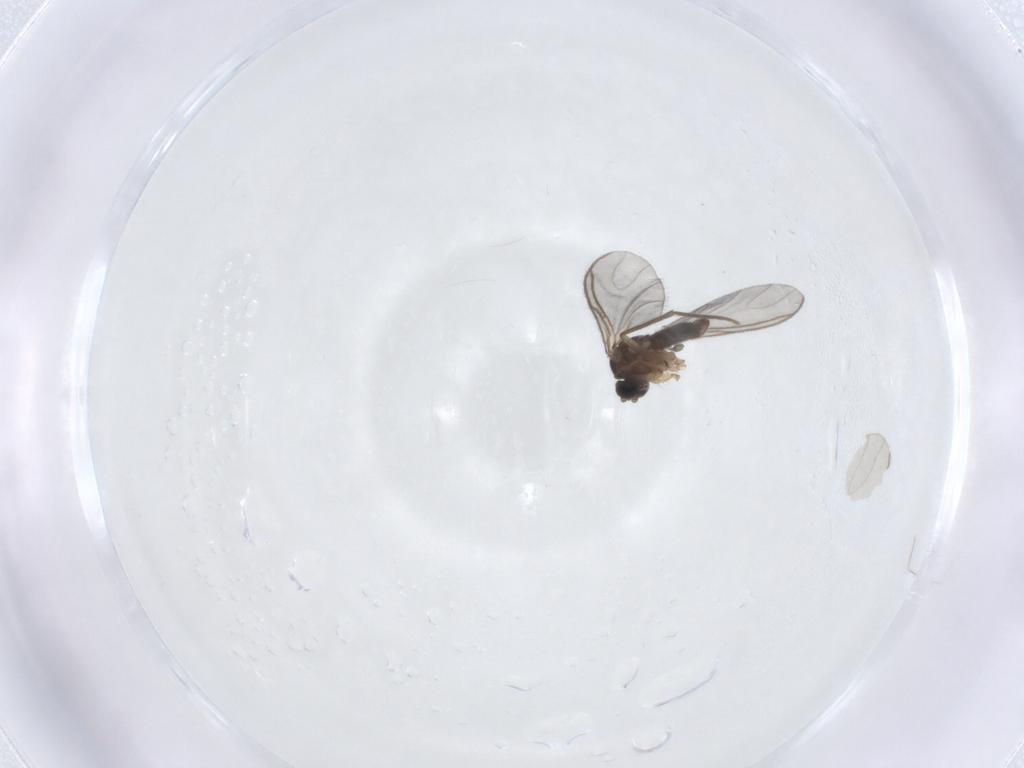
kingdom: Animalia
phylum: Arthropoda
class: Insecta
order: Diptera
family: Sciaridae
